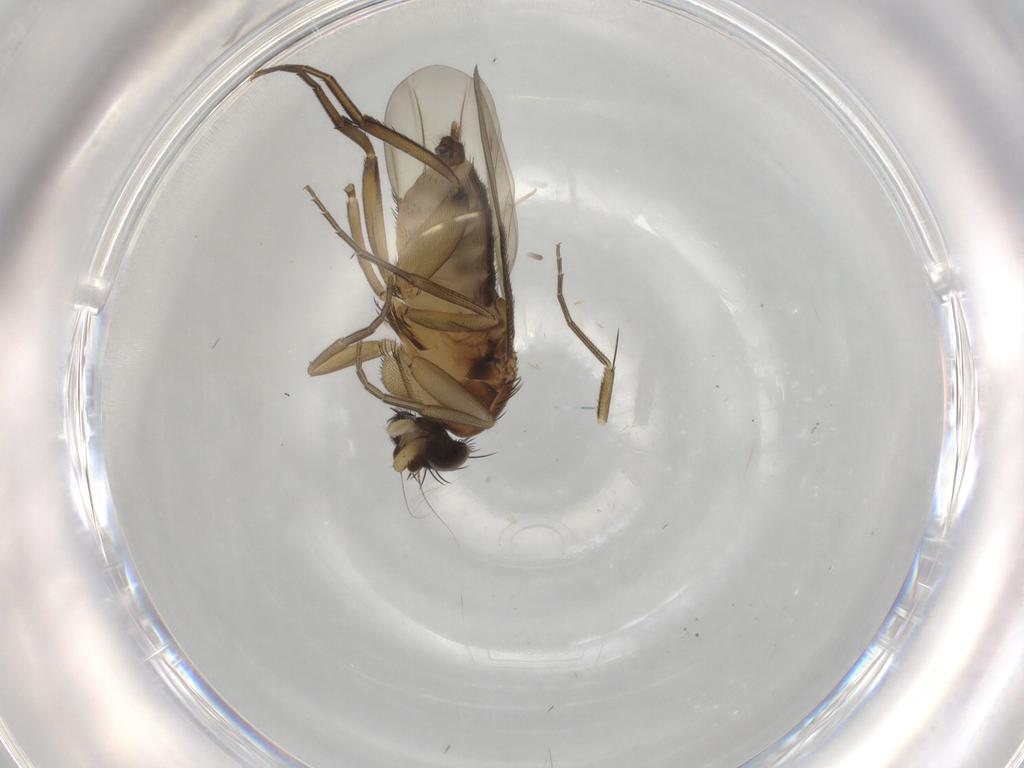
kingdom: Animalia
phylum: Arthropoda
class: Insecta
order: Diptera
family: Phoridae
